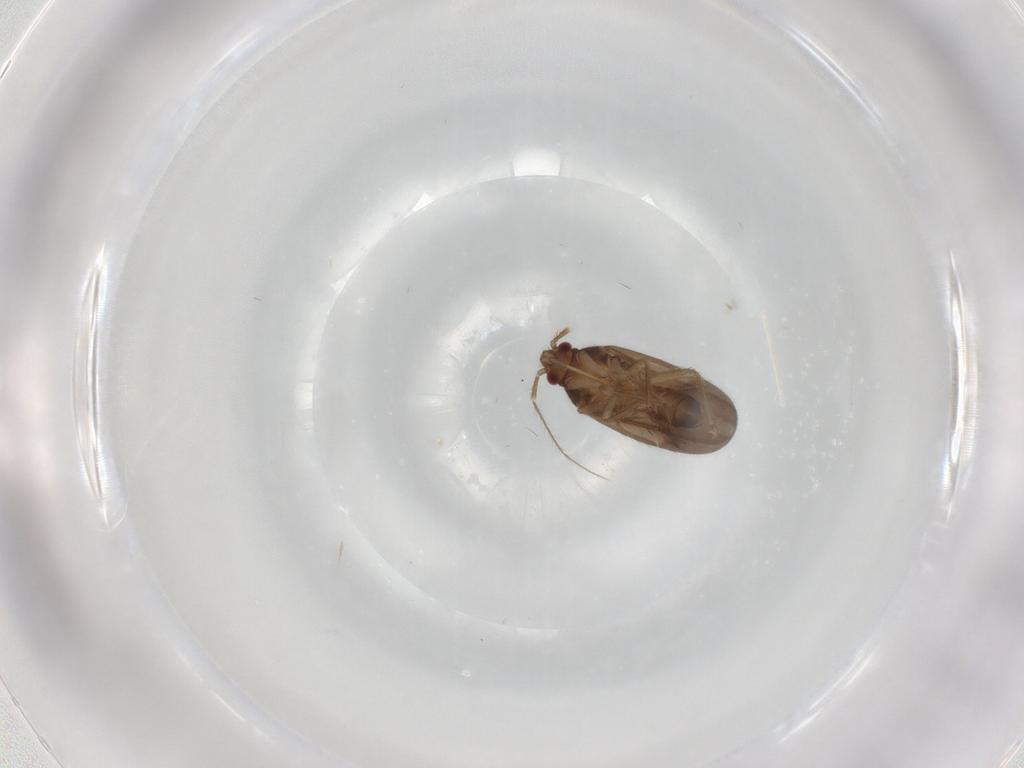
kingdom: Animalia
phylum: Arthropoda
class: Insecta
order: Hemiptera
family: Ceratocombidae
